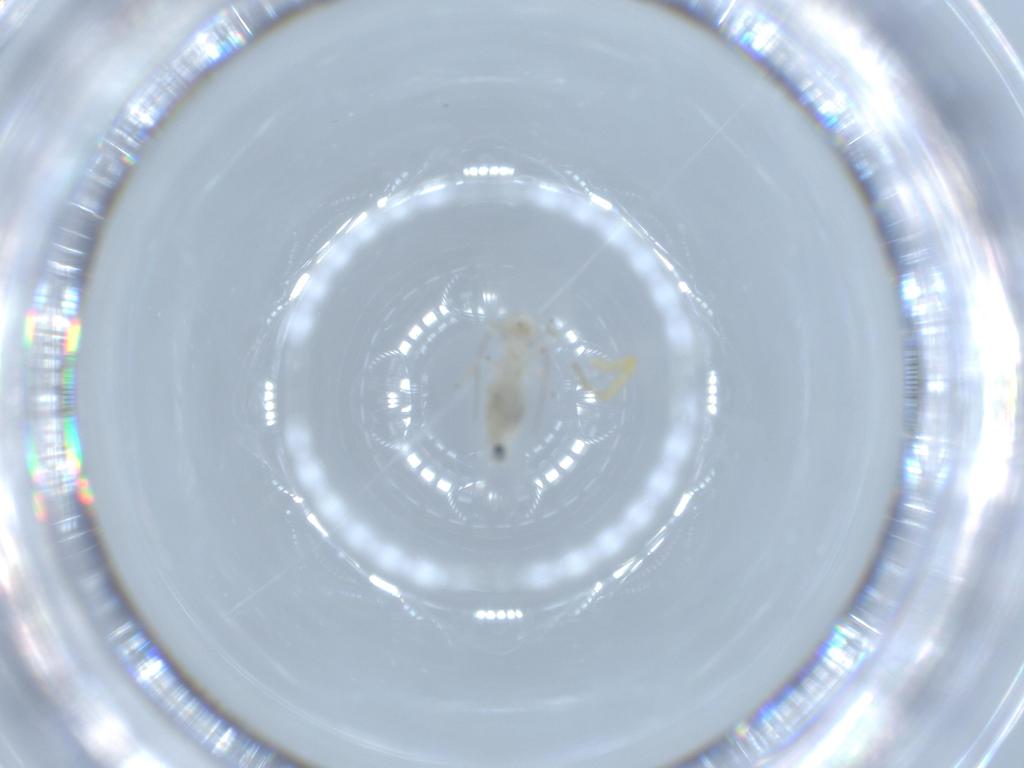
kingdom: Animalia
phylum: Arthropoda
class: Insecta
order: Psocodea
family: Caeciliusidae
